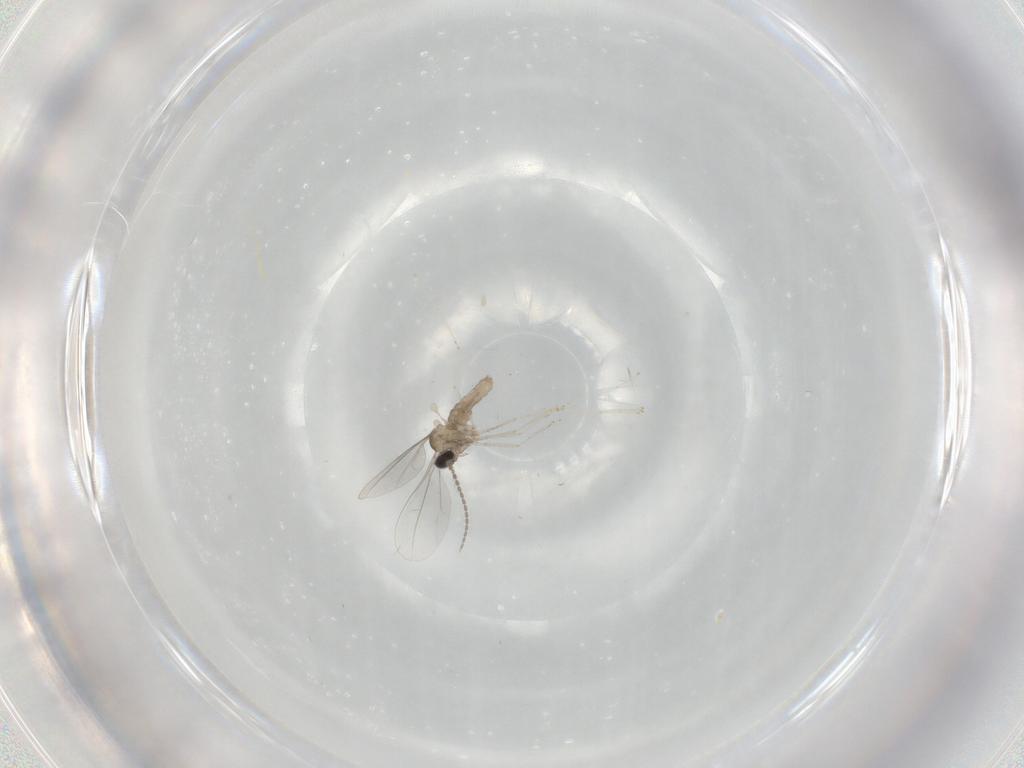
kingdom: Animalia
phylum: Arthropoda
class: Insecta
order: Diptera
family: Cecidomyiidae
